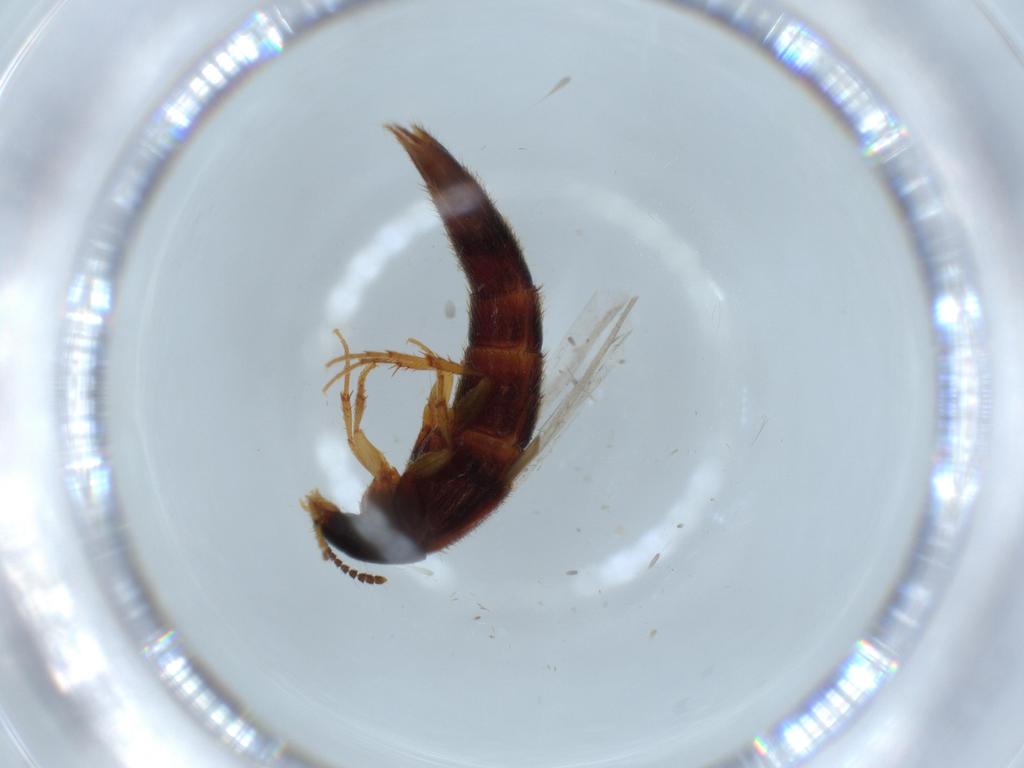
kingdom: Animalia
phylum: Arthropoda
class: Insecta
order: Coleoptera
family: Staphylinidae
